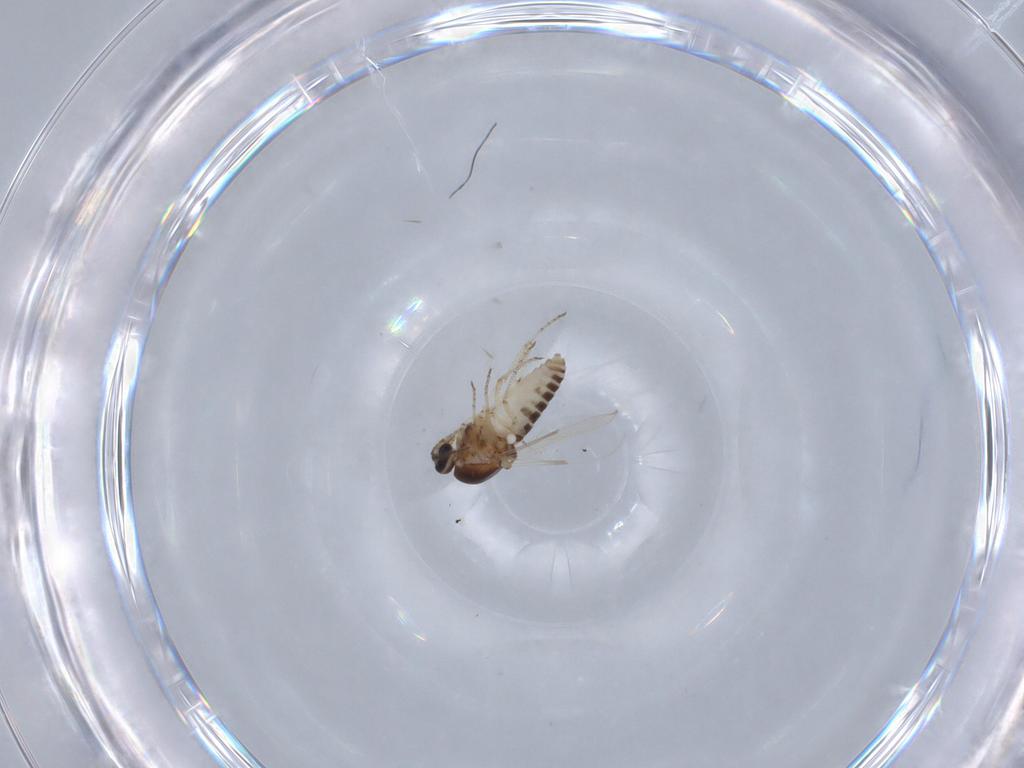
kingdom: Animalia
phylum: Arthropoda
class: Insecta
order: Diptera
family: Ceratopogonidae
